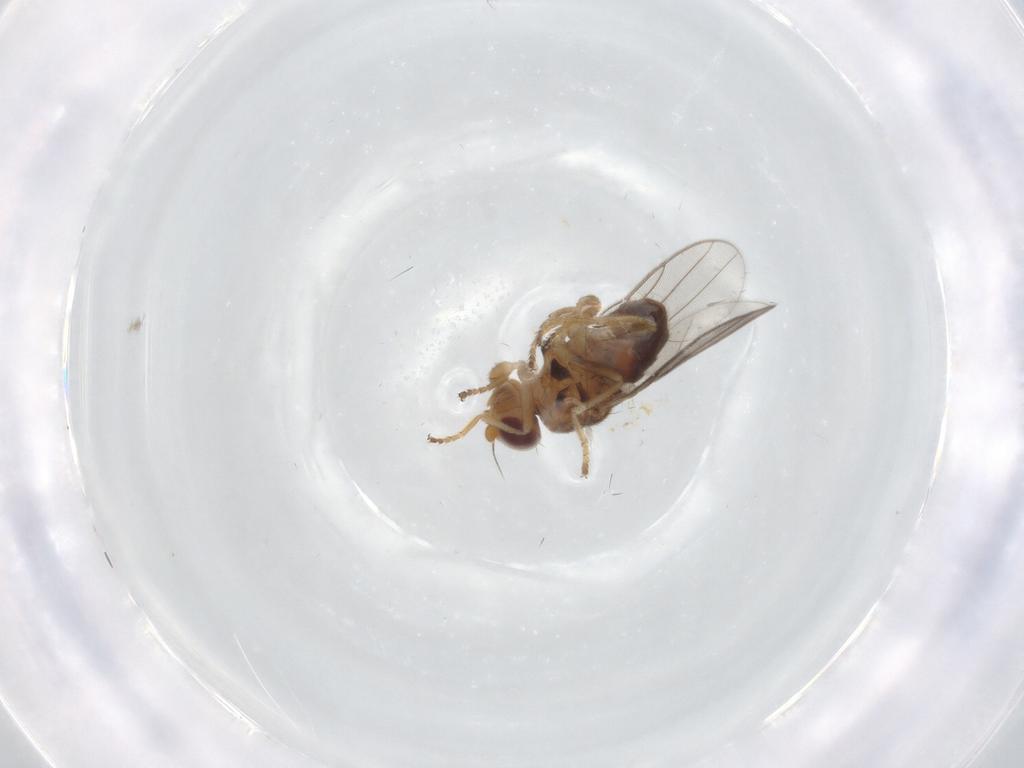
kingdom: Animalia
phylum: Arthropoda
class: Insecta
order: Diptera
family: Chloropidae
